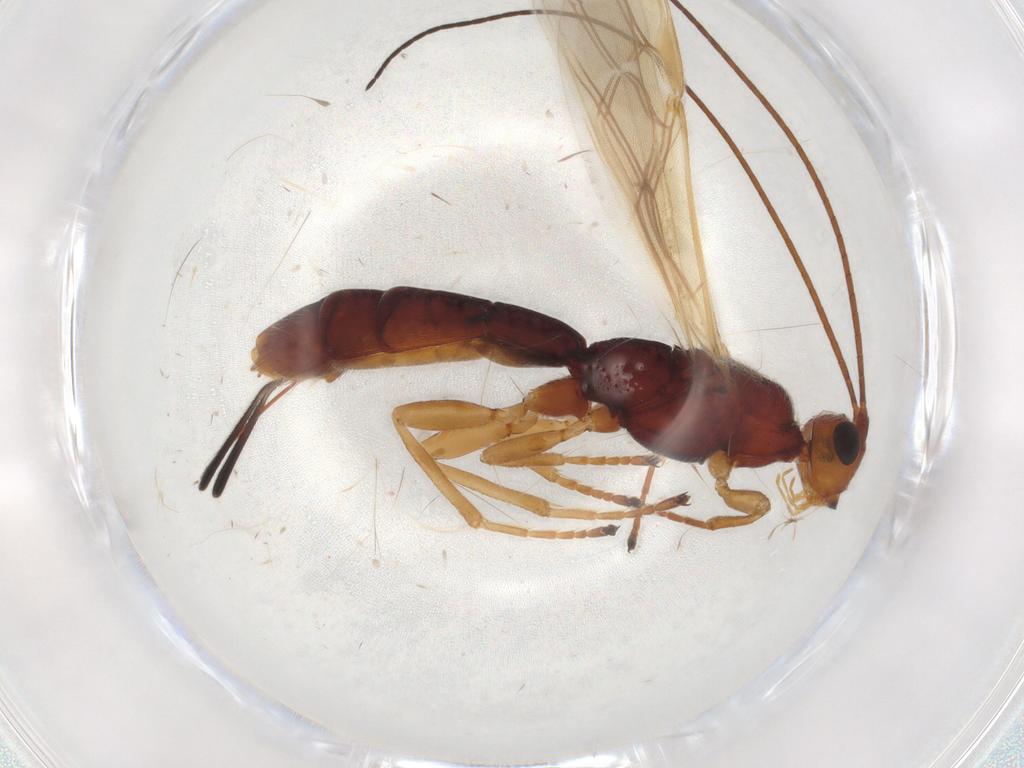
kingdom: Animalia
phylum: Arthropoda
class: Insecta
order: Hymenoptera
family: Braconidae
